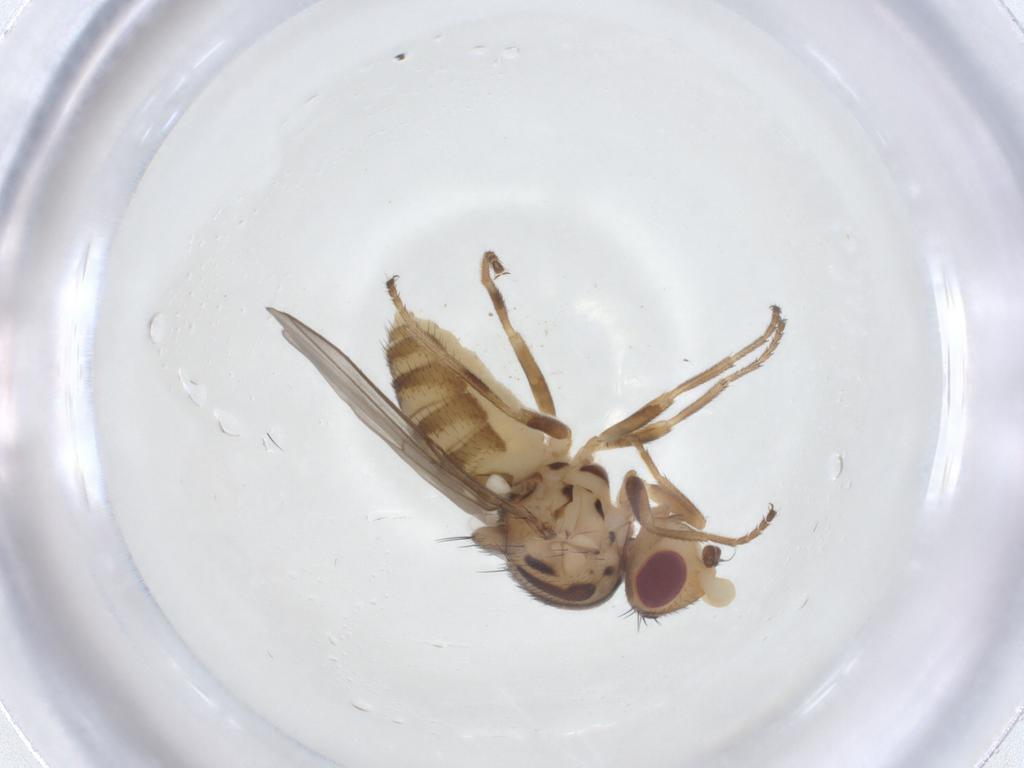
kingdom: Animalia
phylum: Arthropoda
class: Insecta
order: Diptera
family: Chloropidae
